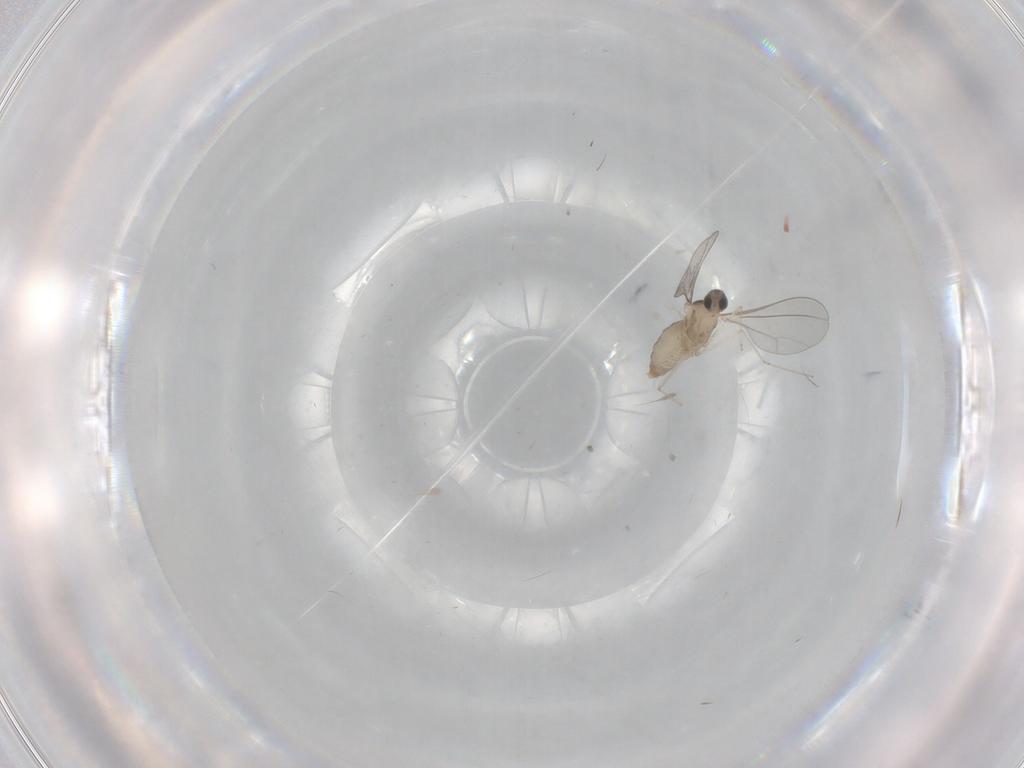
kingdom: Animalia
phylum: Arthropoda
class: Insecta
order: Diptera
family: Cecidomyiidae
